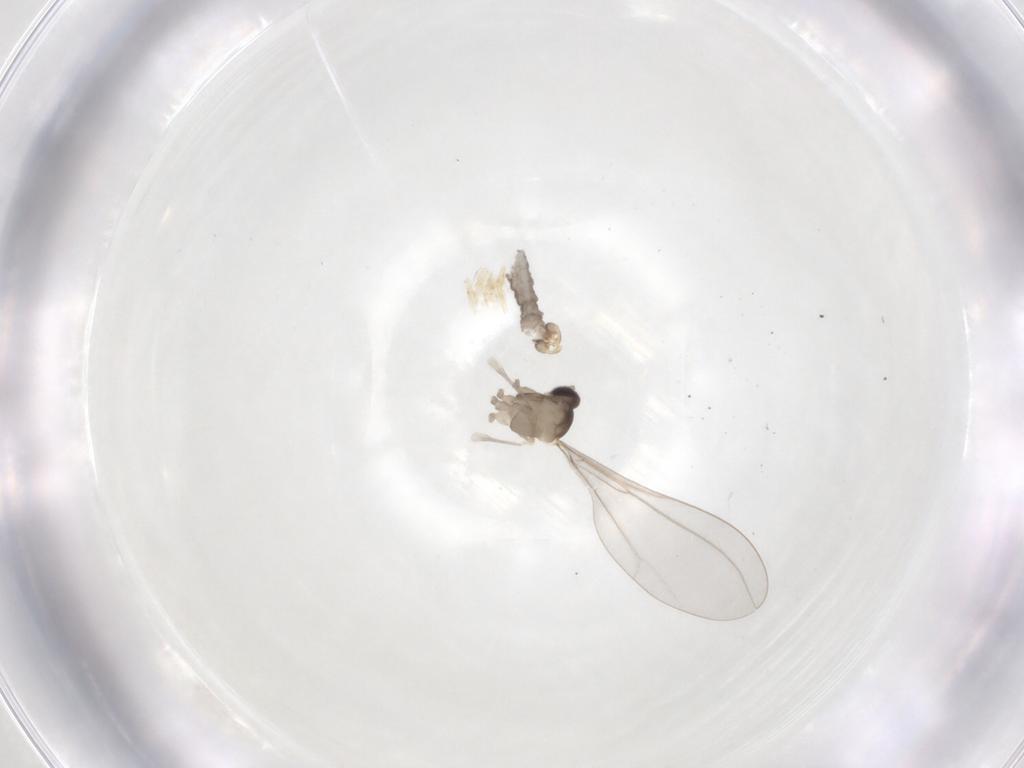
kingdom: Animalia
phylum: Arthropoda
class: Insecta
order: Diptera
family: Cecidomyiidae
